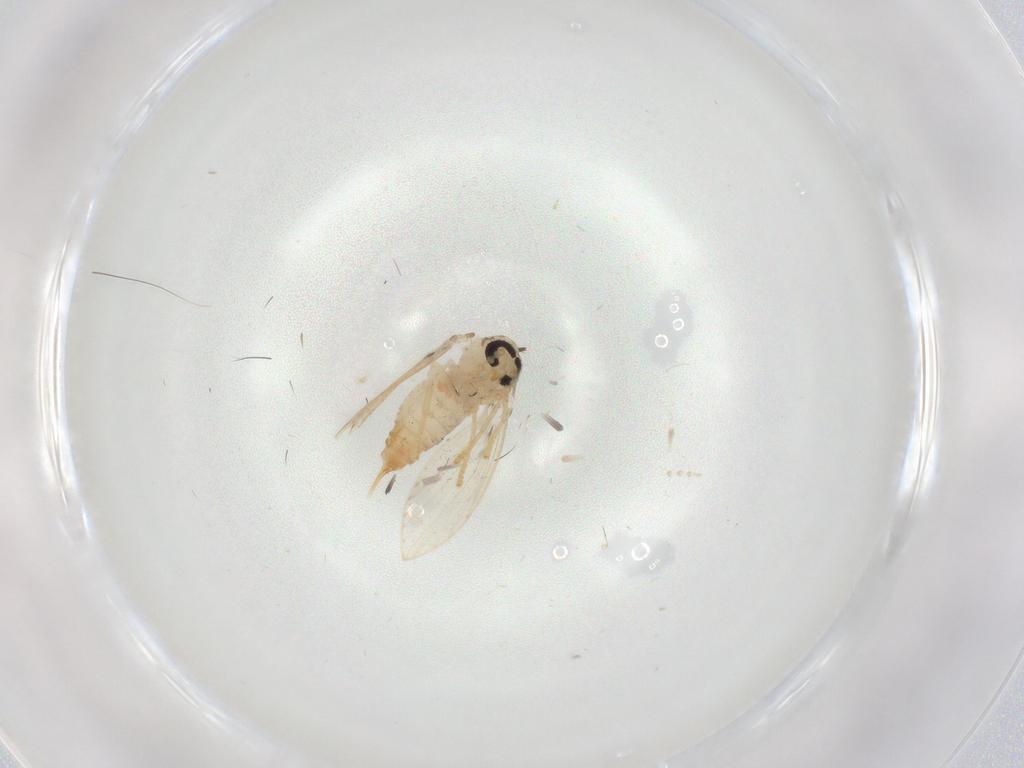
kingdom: Animalia
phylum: Arthropoda
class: Insecta
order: Diptera
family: Psychodidae
